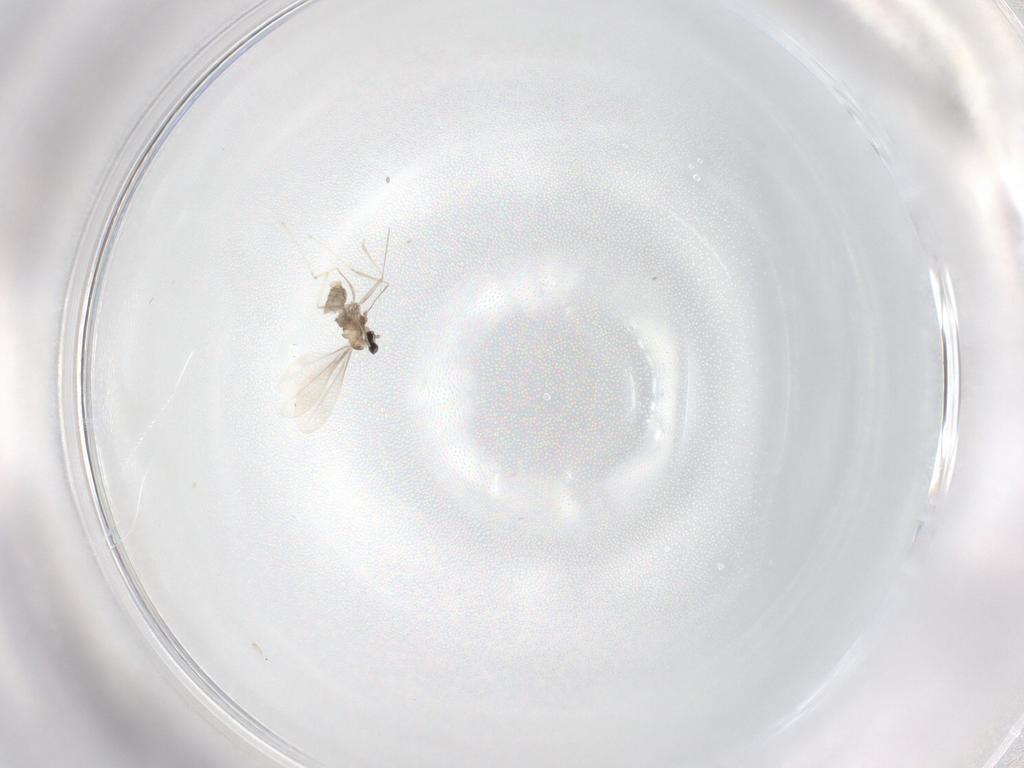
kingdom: Animalia
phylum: Arthropoda
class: Insecta
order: Diptera
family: Cecidomyiidae
